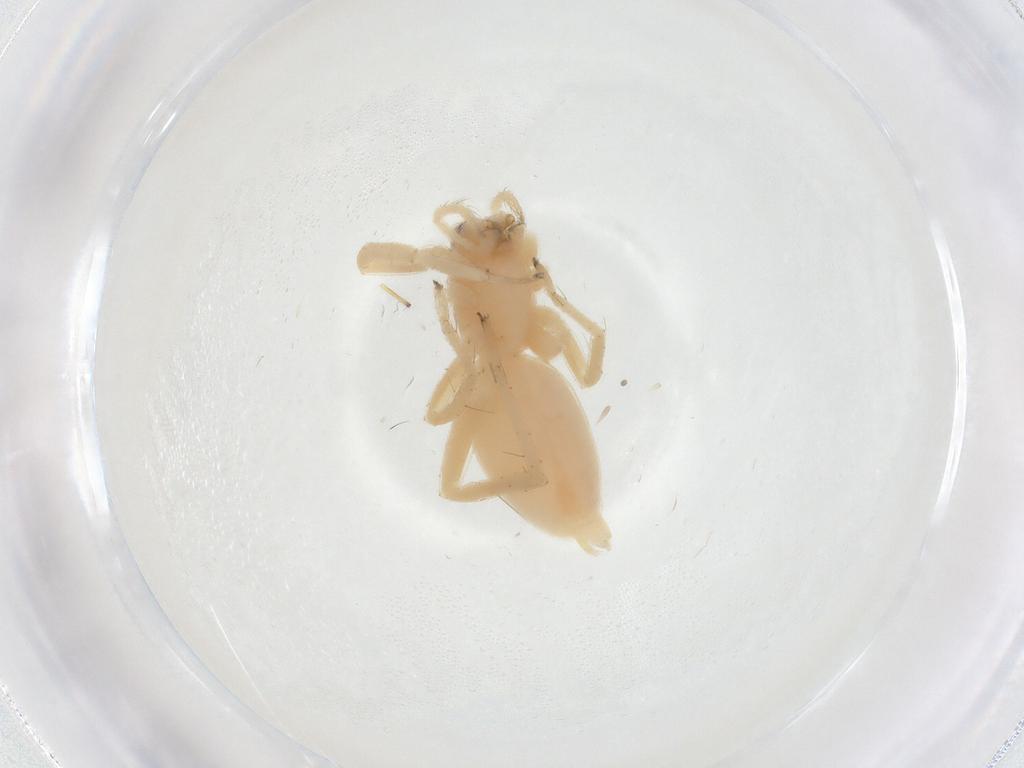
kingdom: Animalia
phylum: Arthropoda
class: Arachnida
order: Araneae
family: Anyphaenidae
